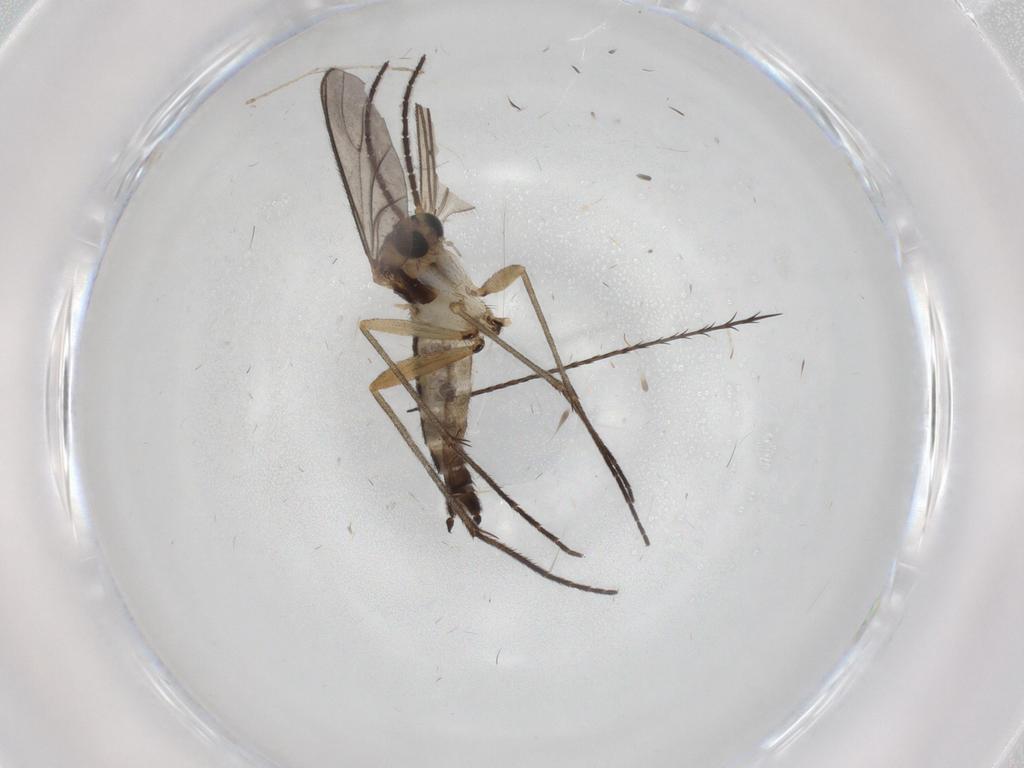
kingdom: Animalia
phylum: Arthropoda
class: Insecta
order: Diptera
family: Sciaridae
